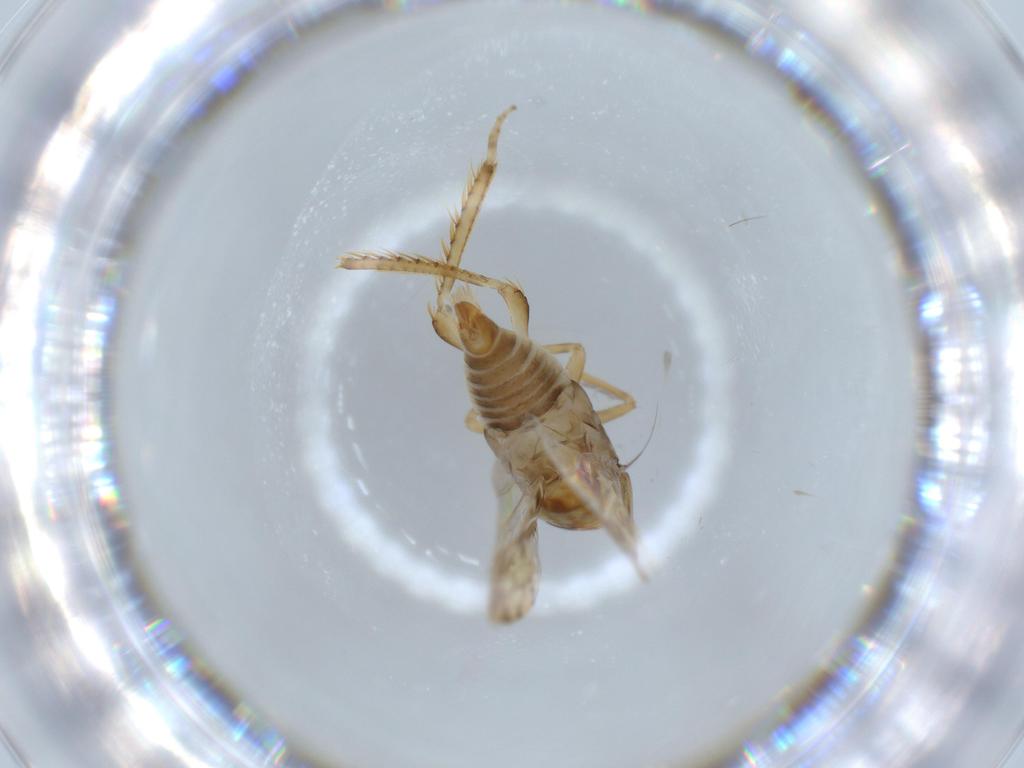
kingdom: Animalia
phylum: Arthropoda
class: Insecta
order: Hemiptera
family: Cicadellidae
